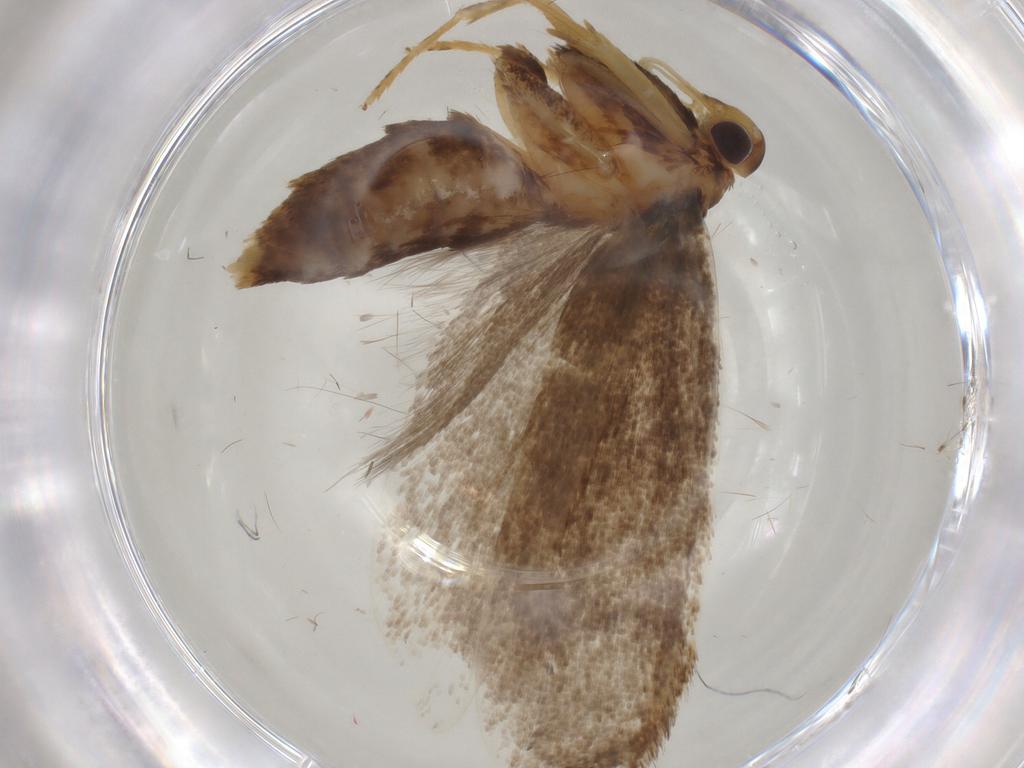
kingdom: Animalia
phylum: Arthropoda
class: Insecta
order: Lepidoptera
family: Lecithoceridae
